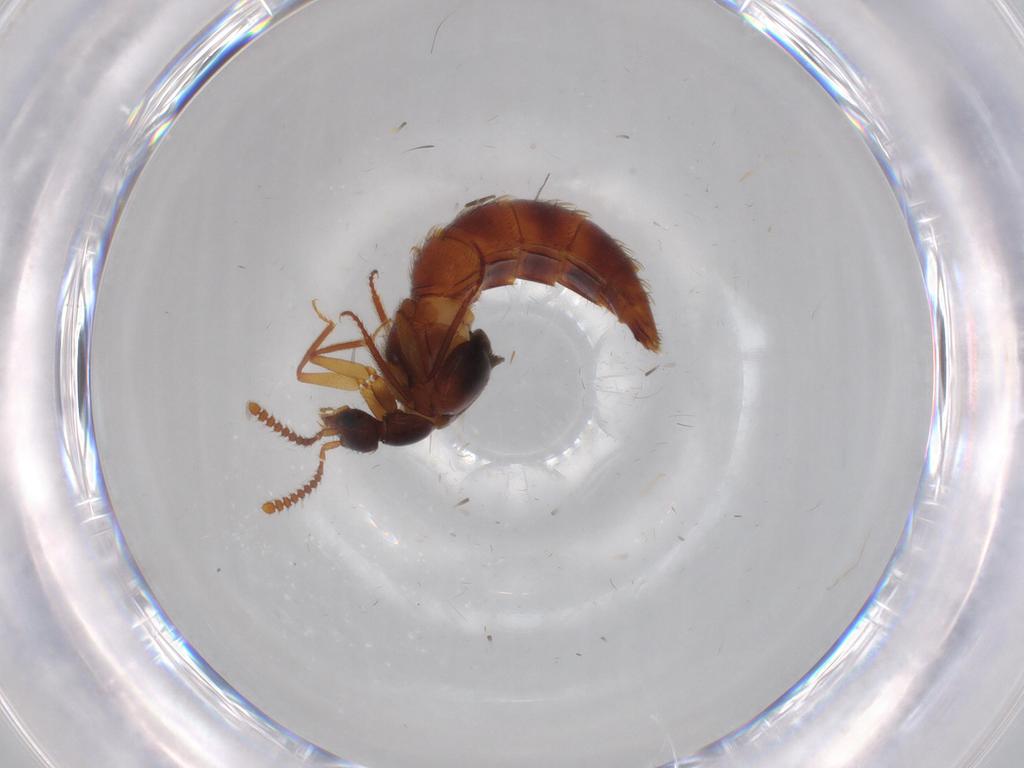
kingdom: Animalia
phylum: Arthropoda
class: Insecta
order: Coleoptera
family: Staphylinidae
